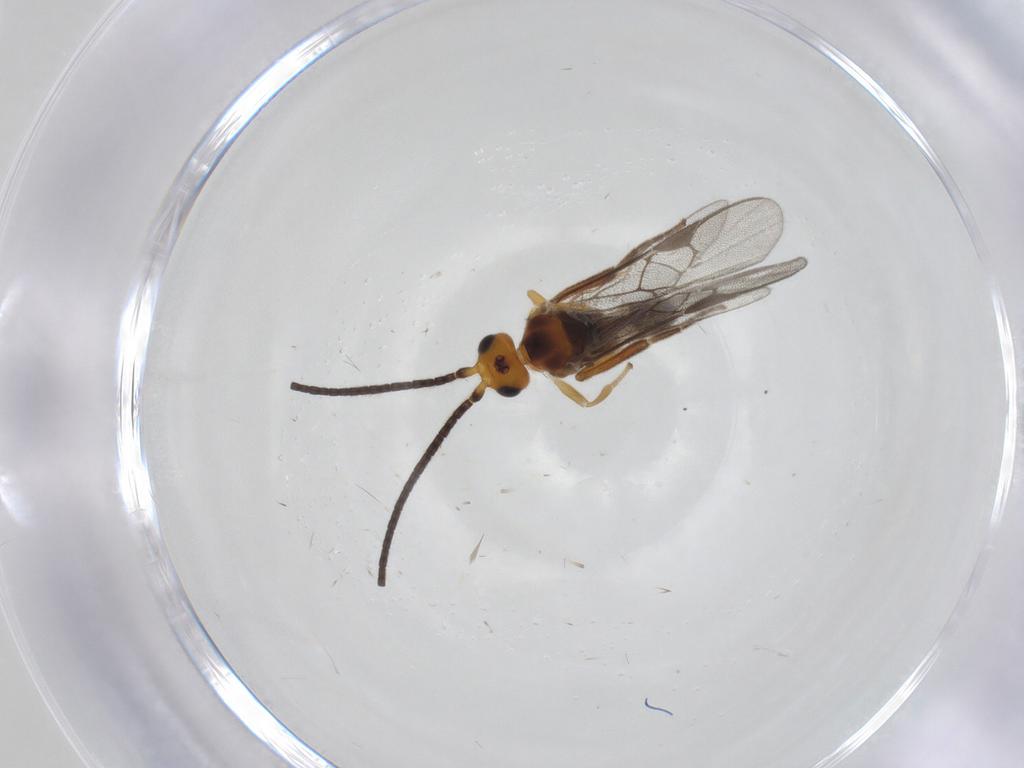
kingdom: Animalia
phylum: Arthropoda
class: Insecta
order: Hymenoptera
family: Braconidae
